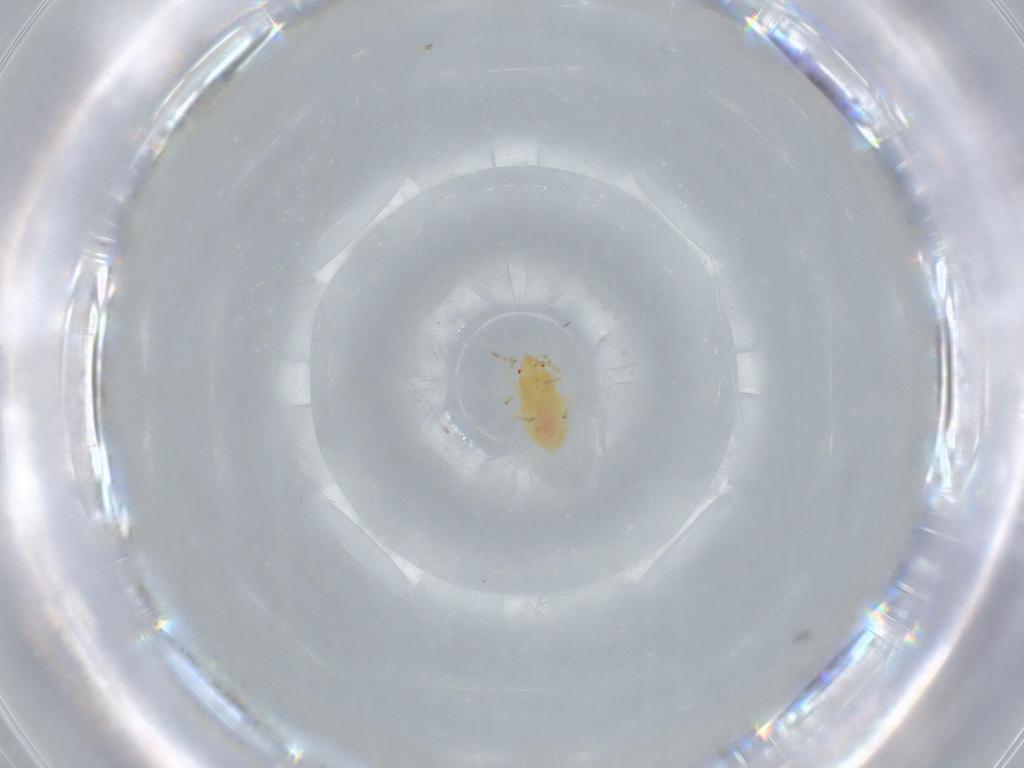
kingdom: Animalia
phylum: Arthropoda
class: Insecta
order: Hemiptera
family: Anthocoridae
